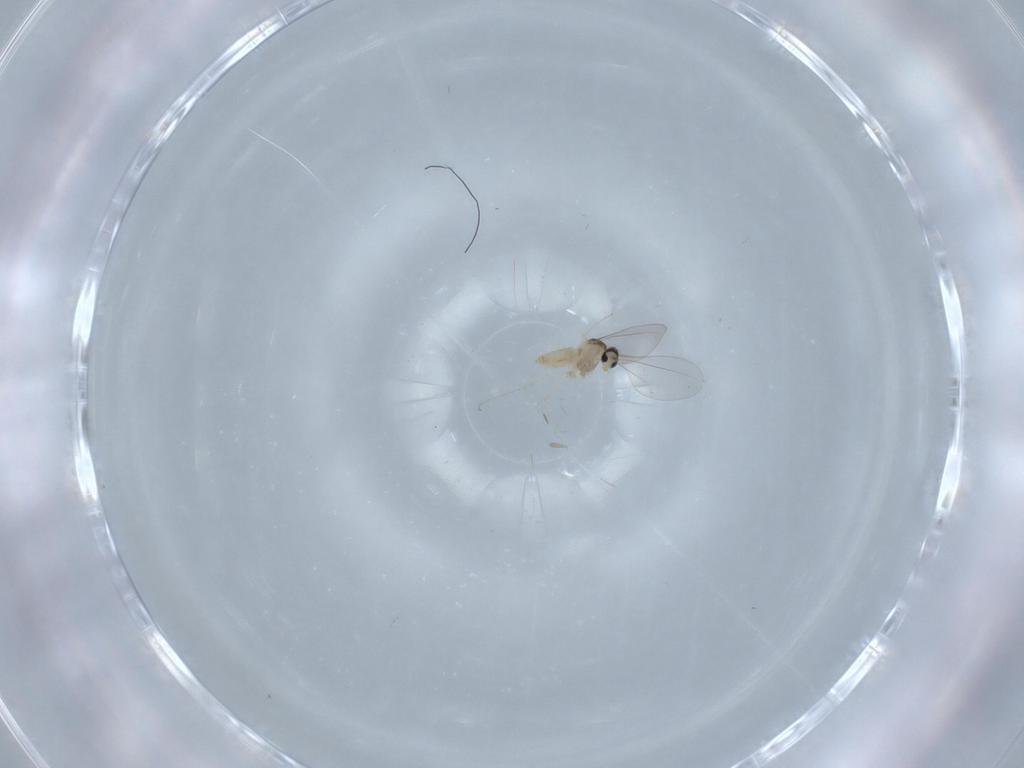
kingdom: Animalia
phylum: Arthropoda
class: Insecta
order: Diptera
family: Cecidomyiidae
